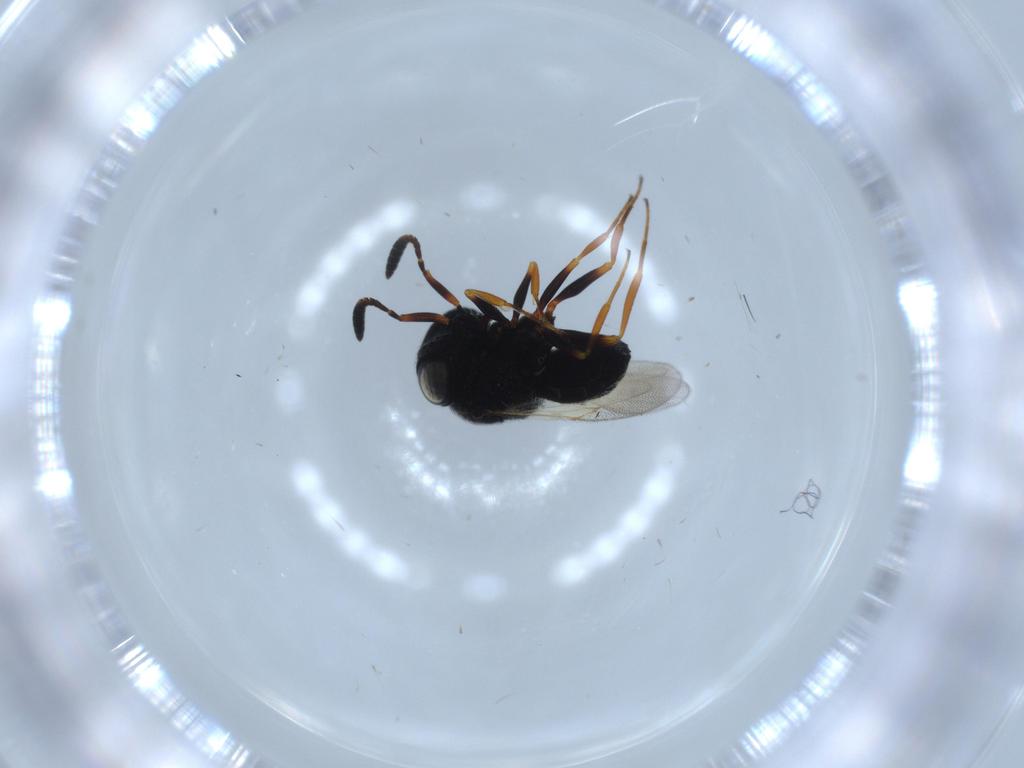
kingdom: Animalia
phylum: Arthropoda
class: Insecta
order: Hymenoptera
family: Scelionidae
